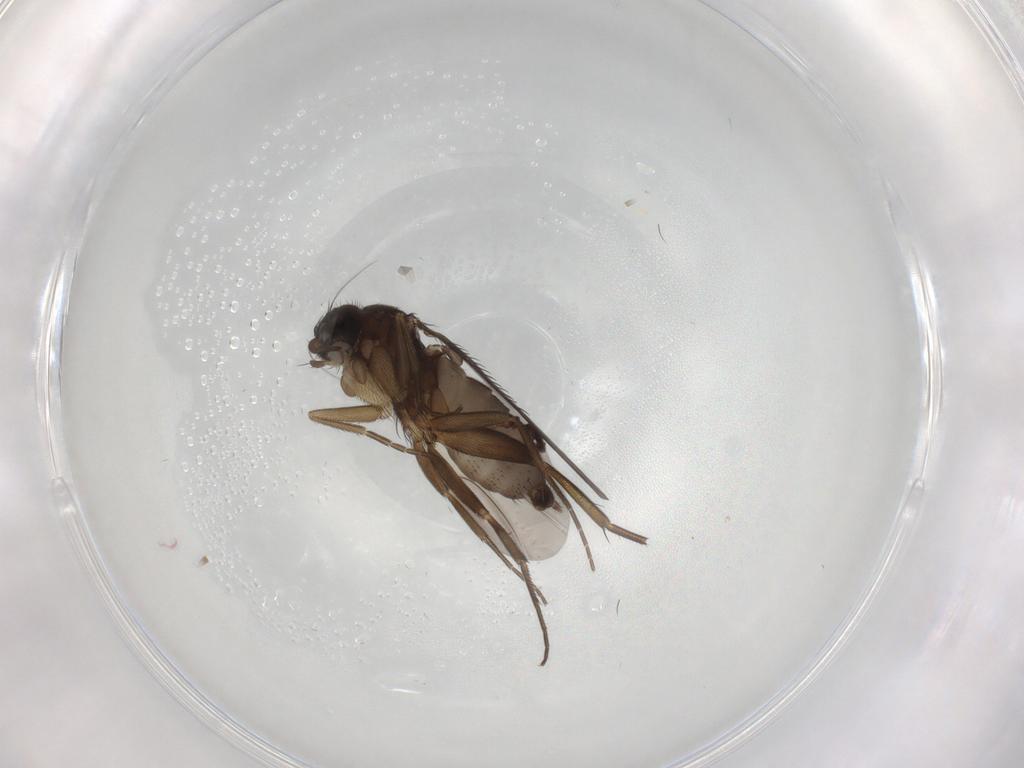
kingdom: Animalia
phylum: Arthropoda
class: Insecta
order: Diptera
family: Phoridae
